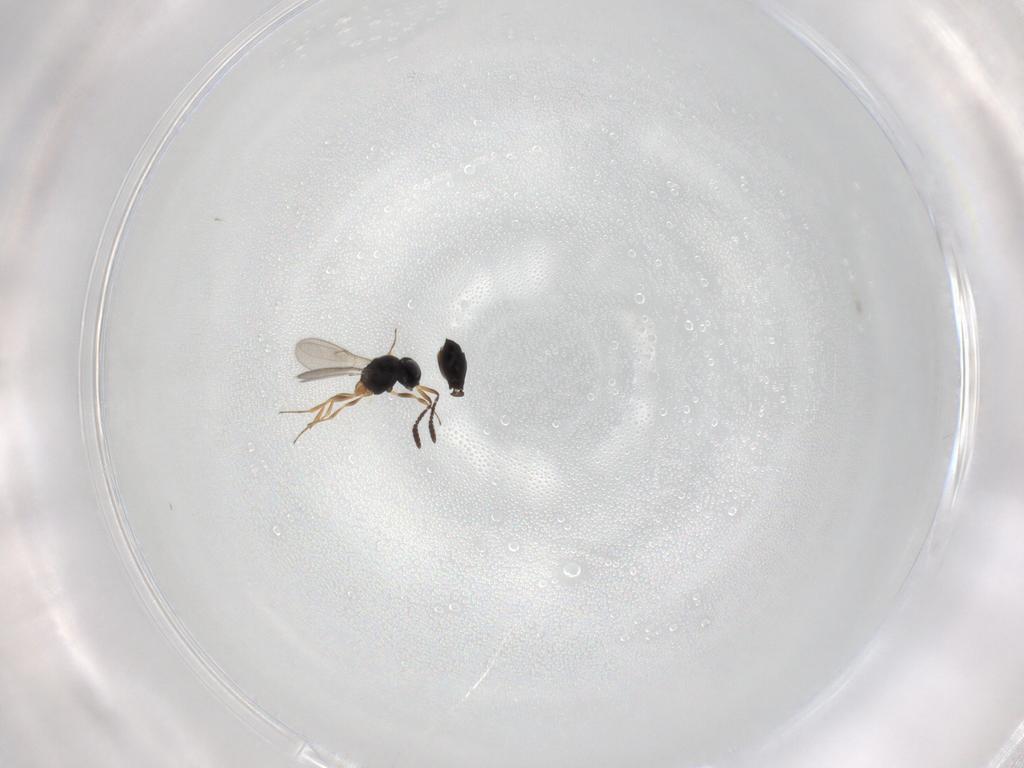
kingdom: Animalia
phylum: Arthropoda
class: Insecta
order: Hymenoptera
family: Scelionidae
